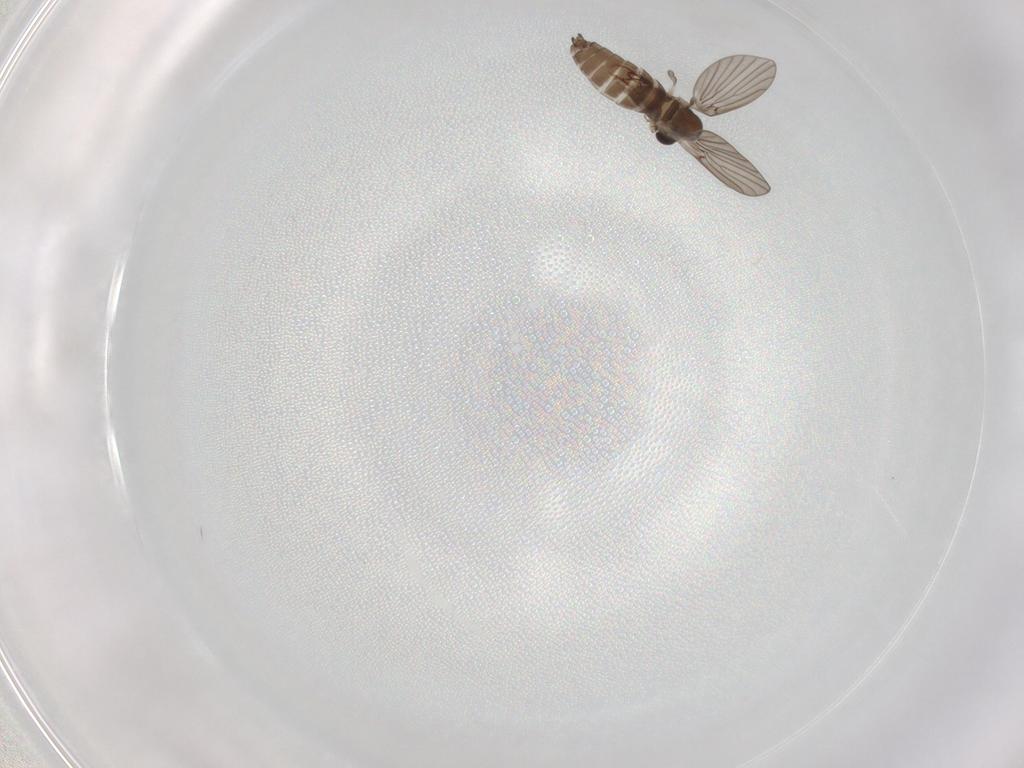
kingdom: Animalia
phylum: Arthropoda
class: Insecta
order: Diptera
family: Sarcophagidae
